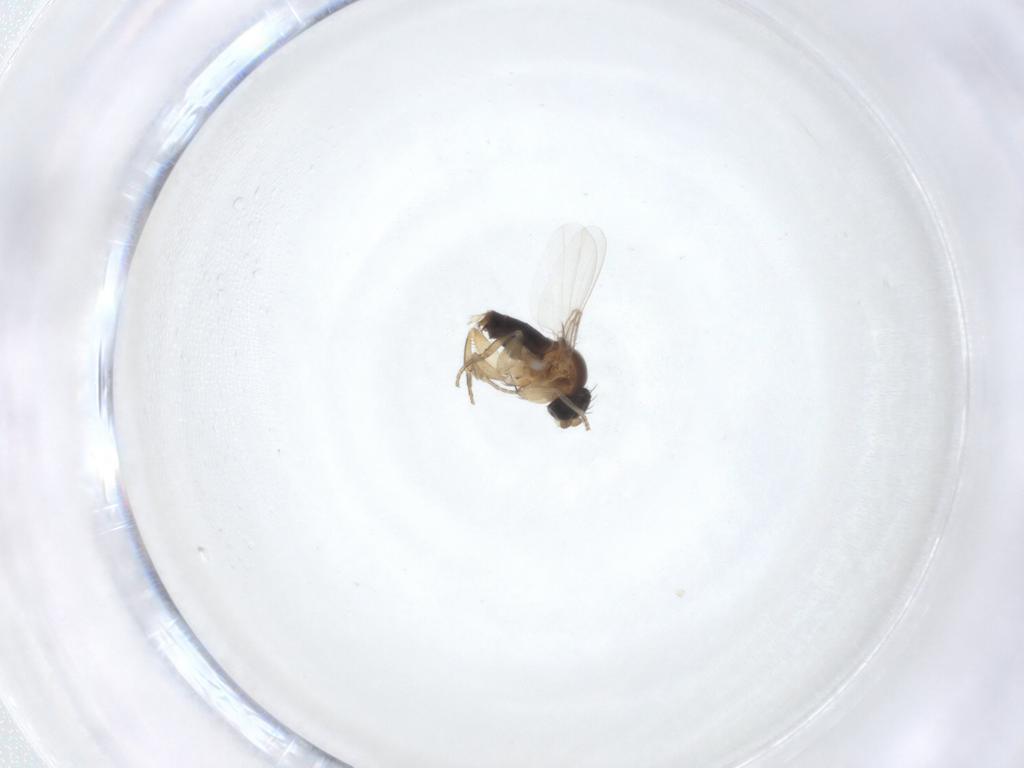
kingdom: Animalia
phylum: Arthropoda
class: Insecta
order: Diptera
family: Phoridae
